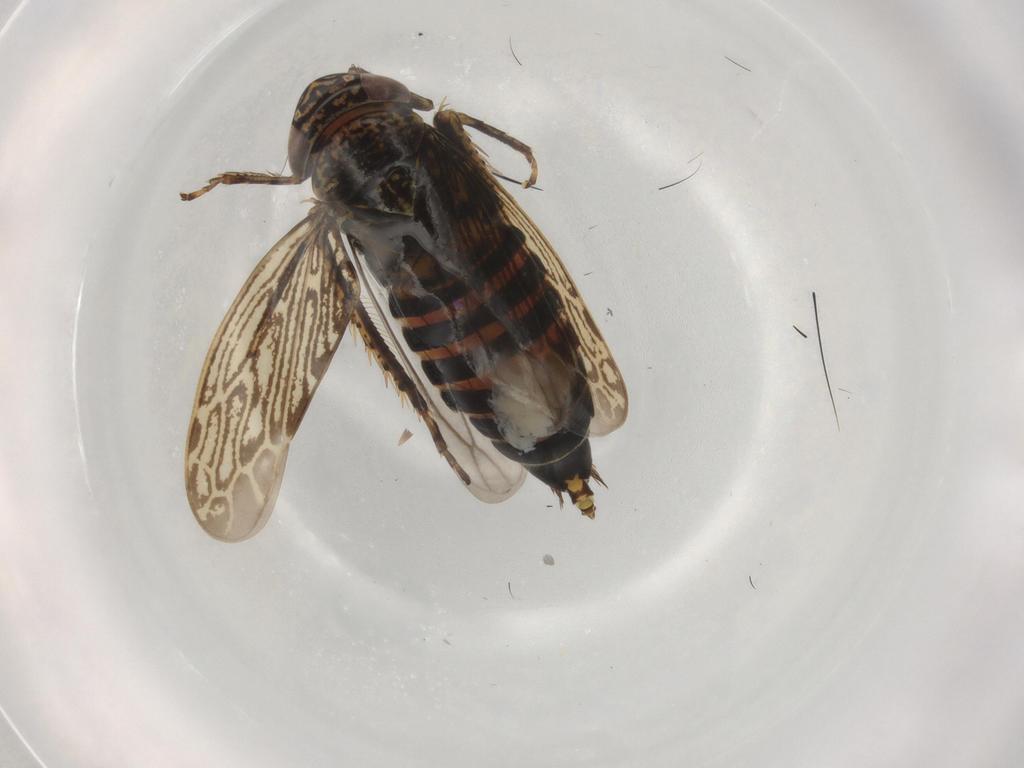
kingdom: Animalia
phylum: Arthropoda
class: Insecta
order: Hemiptera
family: Cicadellidae
